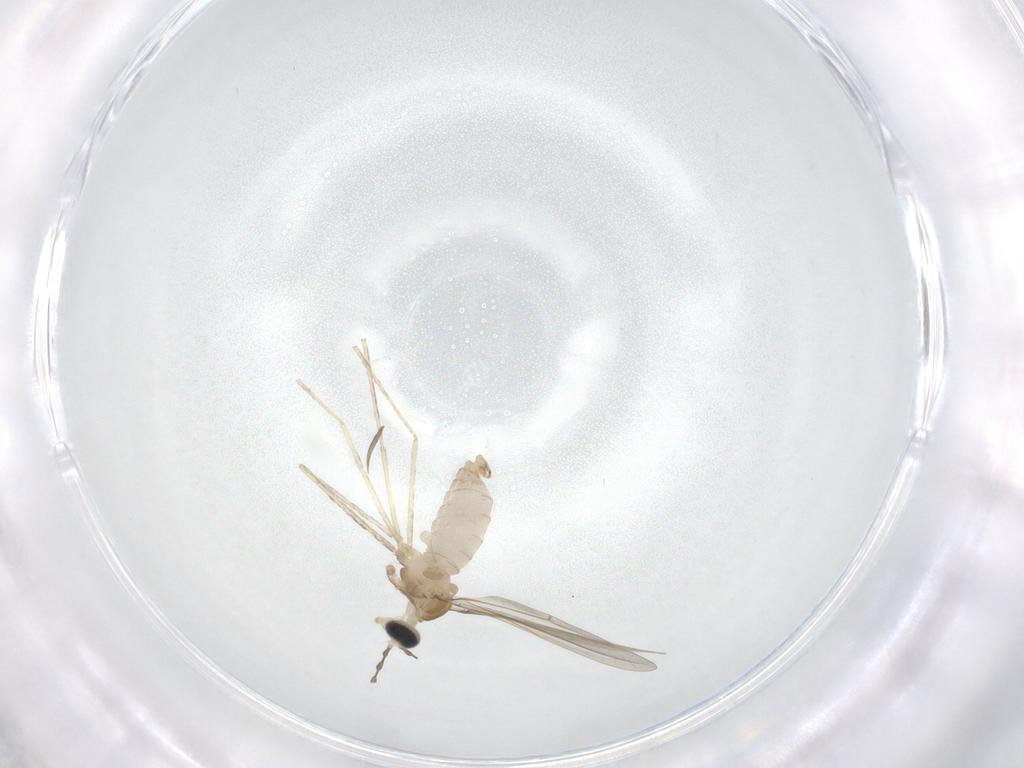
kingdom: Animalia
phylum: Arthropoda
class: Insecta
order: Diptera
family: Cecidomyiidae
